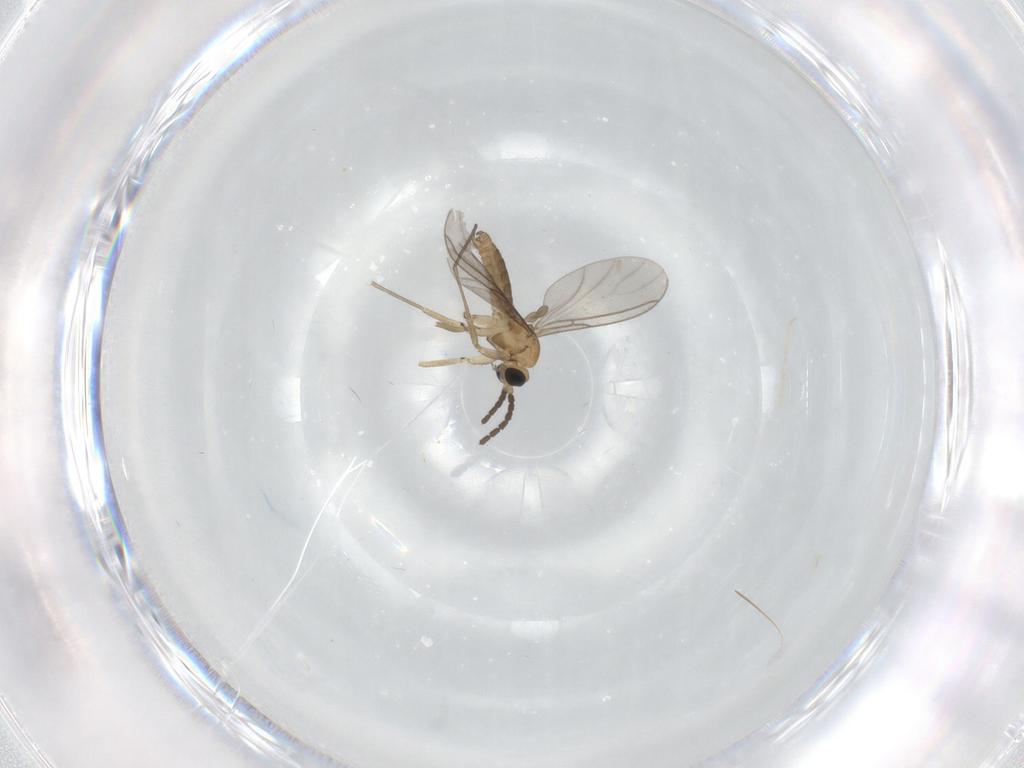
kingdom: Animalia
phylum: Arthropoda
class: Insecta
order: Diptera
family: Sciaridae
